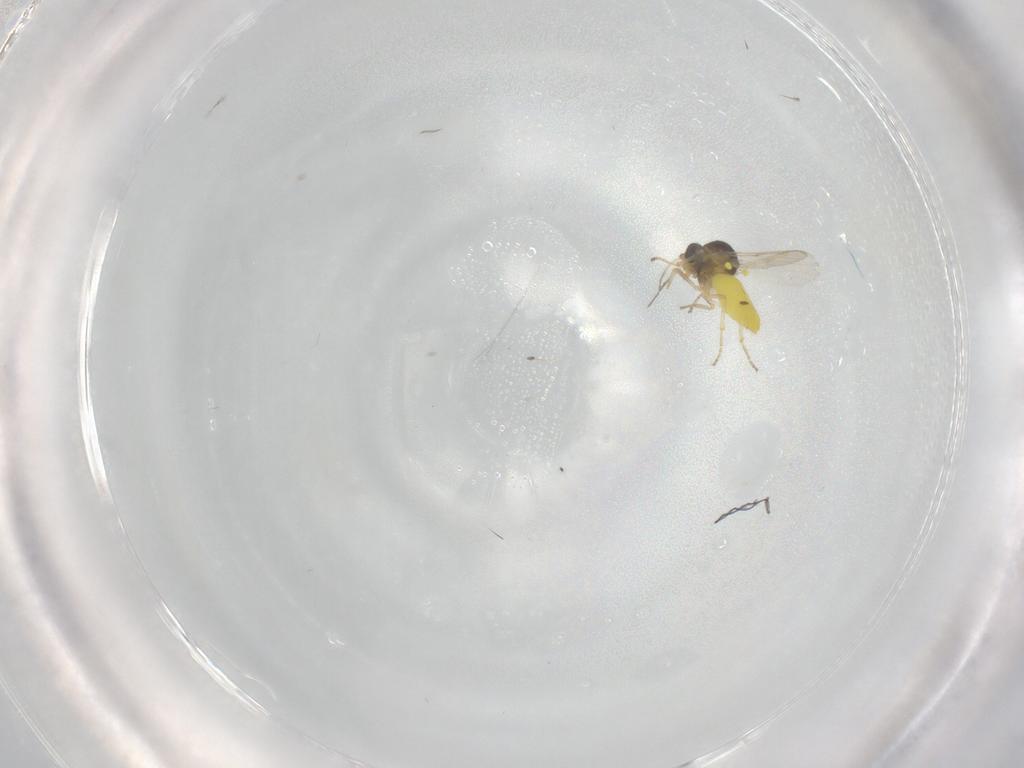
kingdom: Animalia
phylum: Arthropoda
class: Insecta
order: Diptera
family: Ceratopogonidae
